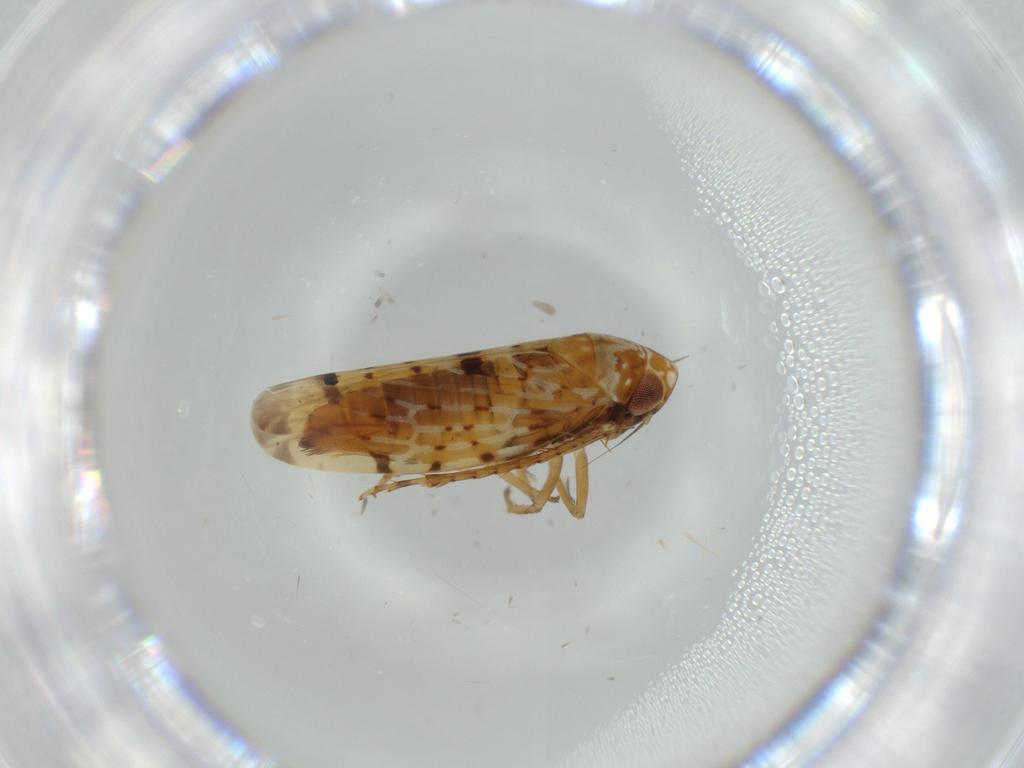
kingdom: Animalia
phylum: Arthropoda
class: Insecta
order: Hemiptera
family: Cicadellidae
